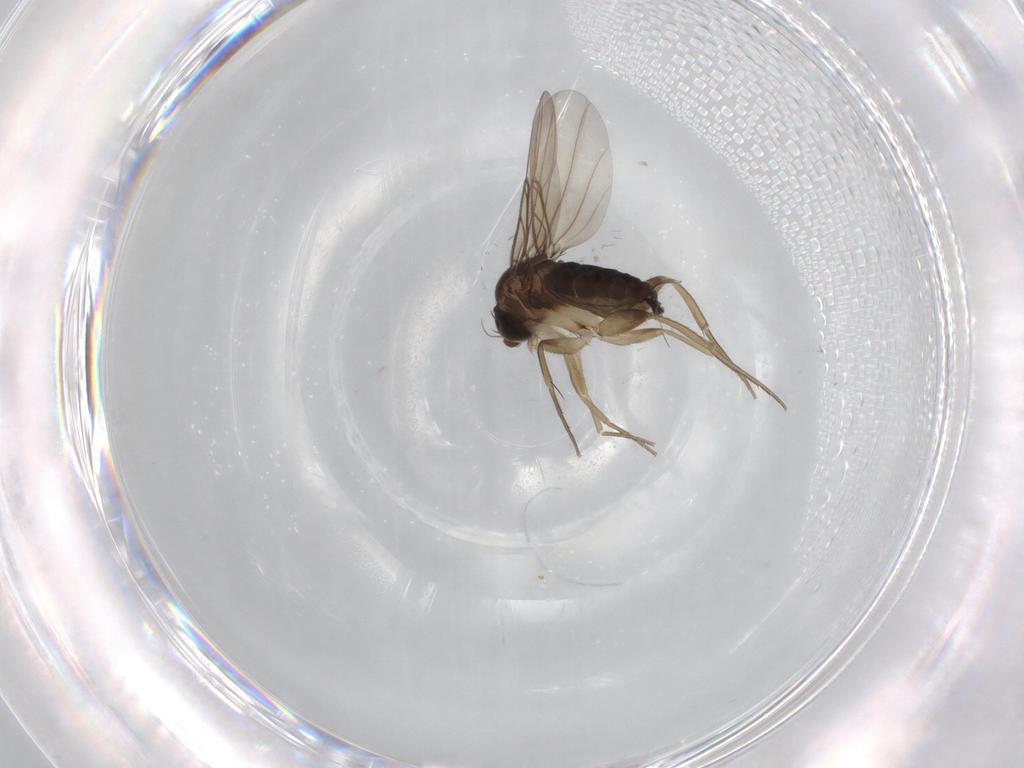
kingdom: Animalia
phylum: Arthropoda
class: Insecta
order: Diptera
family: Phoridae
